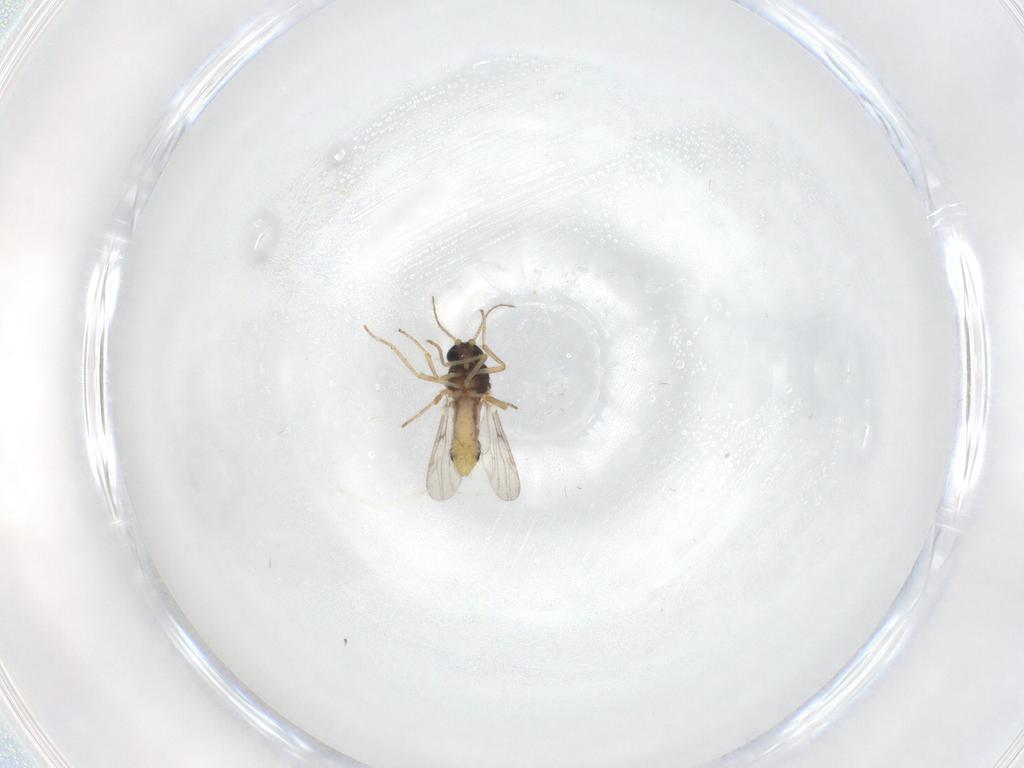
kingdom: Animalia
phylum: Arthropoda
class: Insecta
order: Diptera
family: Ceratopogonidae
